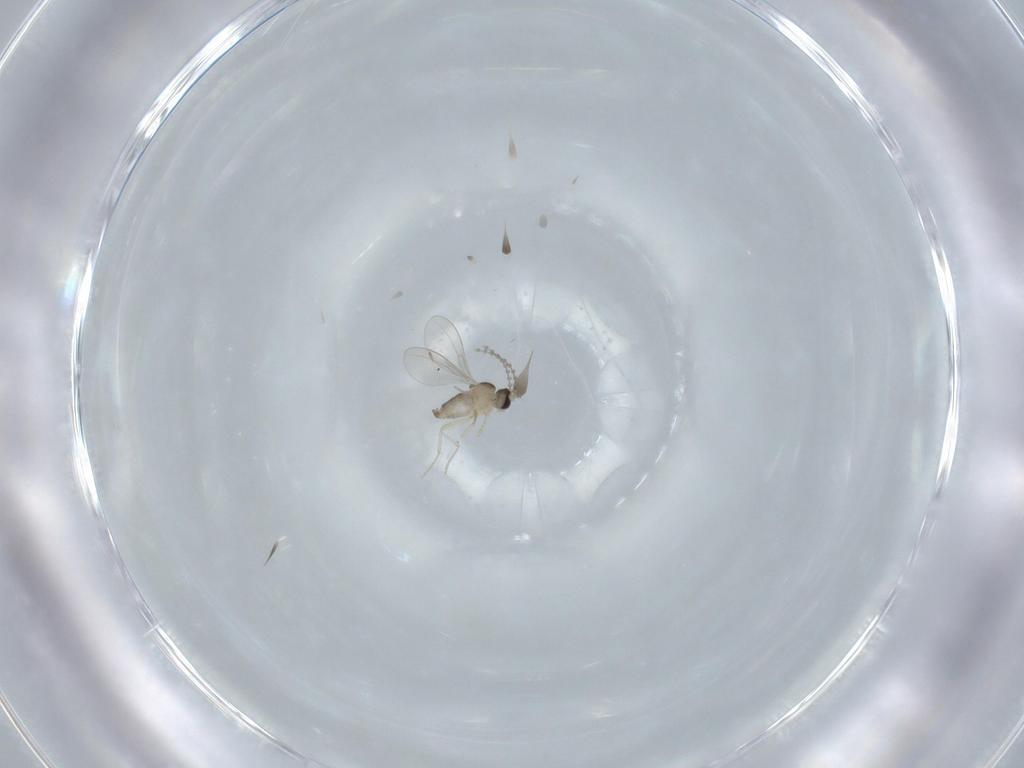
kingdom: Animalia
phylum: Arthropoda
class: Insecta
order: Diptera
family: Cecidomyiidae
